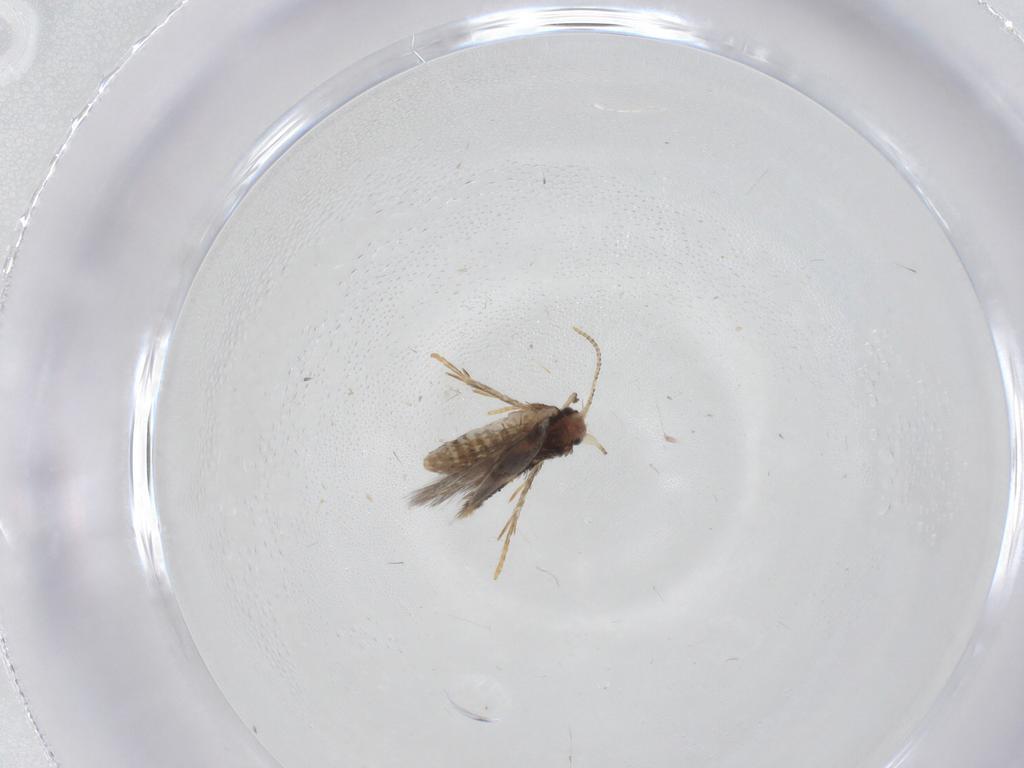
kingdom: Animalia
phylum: Arthropoda
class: Insecta
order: Lepidoptera
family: Nepticulidae
